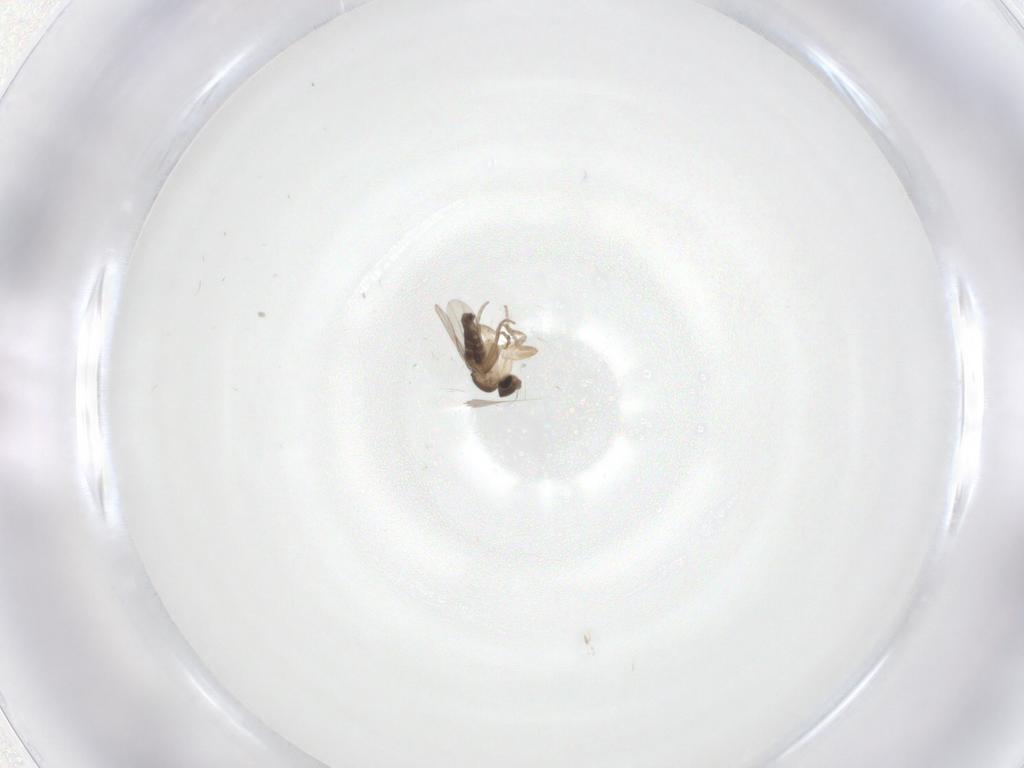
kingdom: Animalia
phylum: Arthropoda
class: Insecta
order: Diptera
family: Phoridae
